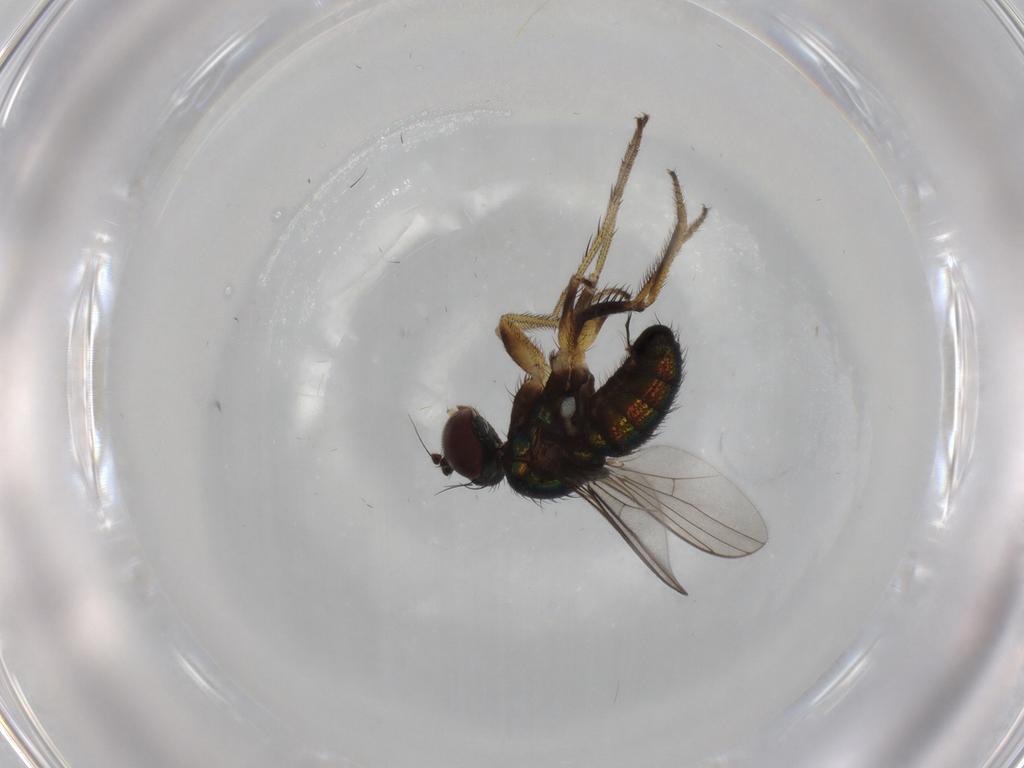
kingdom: Animalia
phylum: Arthropoda
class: Insecta
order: Diptera
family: Dolichopodidae
